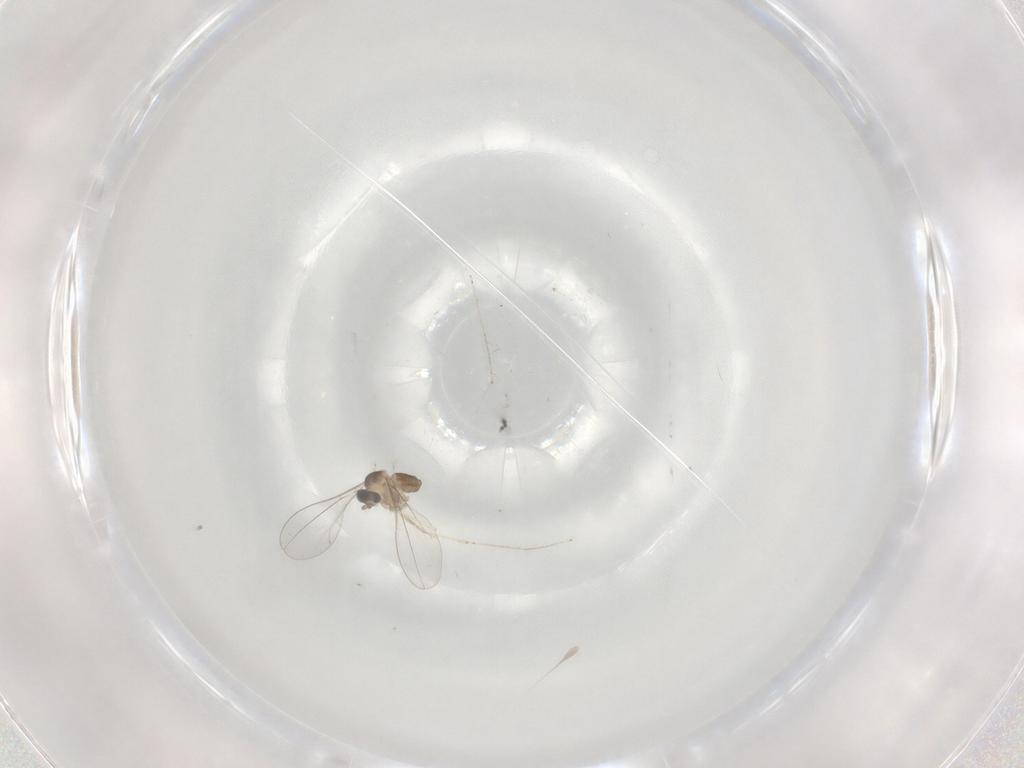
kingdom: Animalia
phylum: Arthropoda
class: Insecta
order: Diptera
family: Cecidomyiidae
